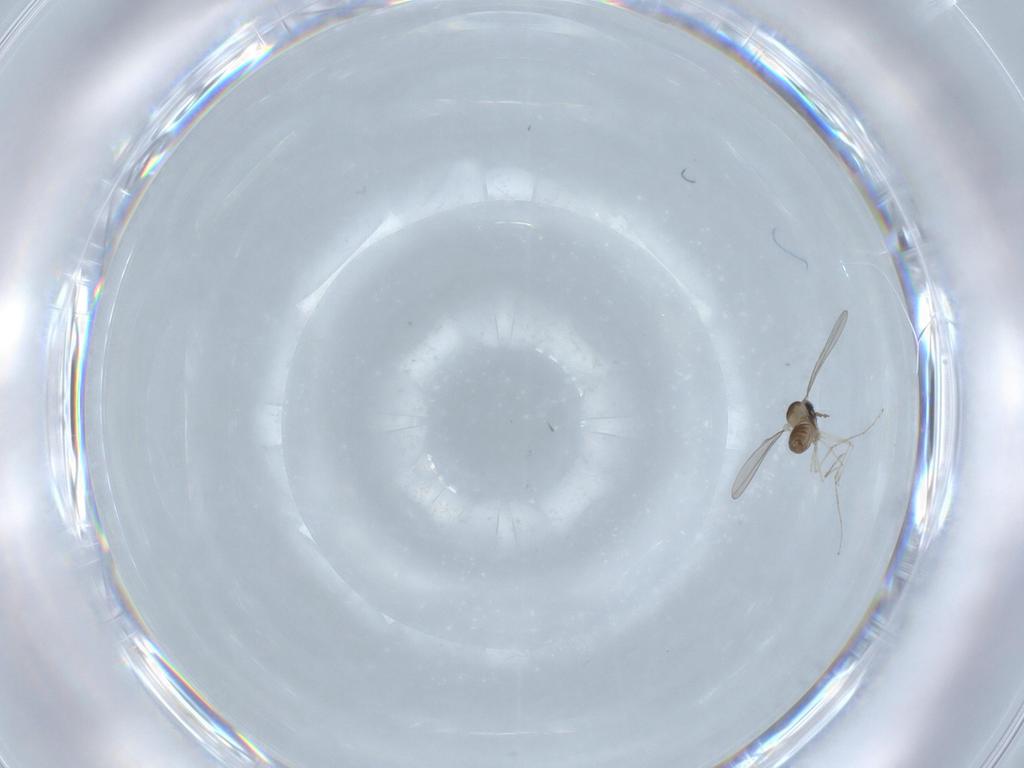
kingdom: Animalia
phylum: Arthropoda
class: Insecta
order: Diptera
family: Cecidomyiidae
